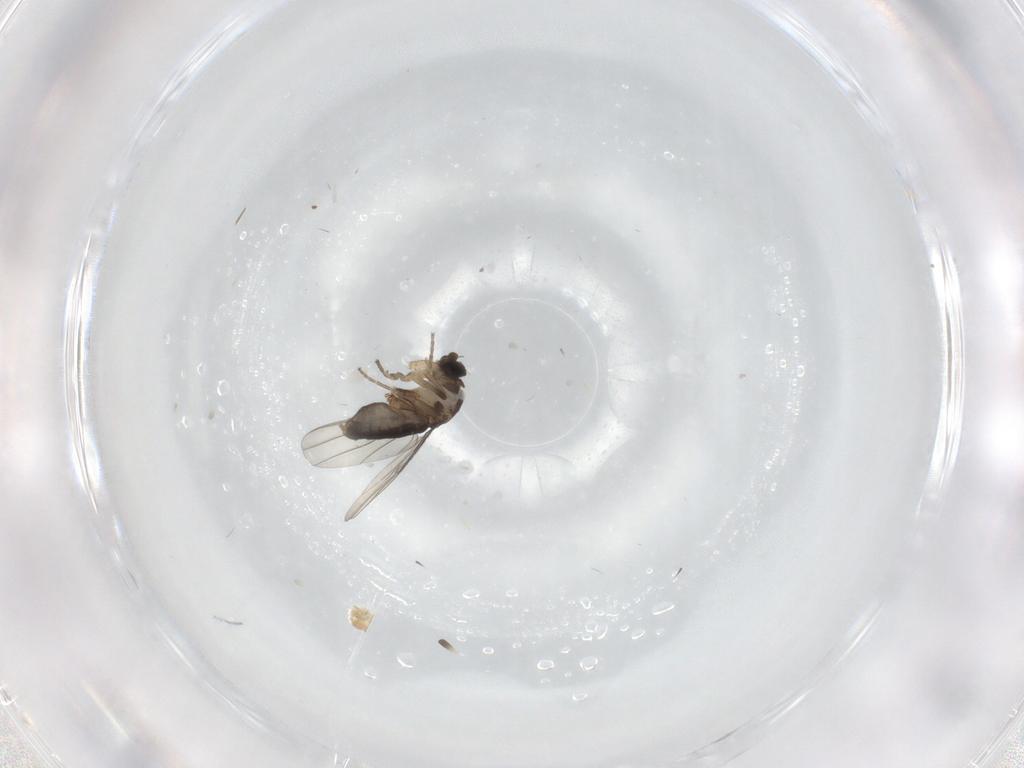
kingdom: Animalia
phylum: Arthropoda
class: Insecta
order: Diptera
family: Phoridae
